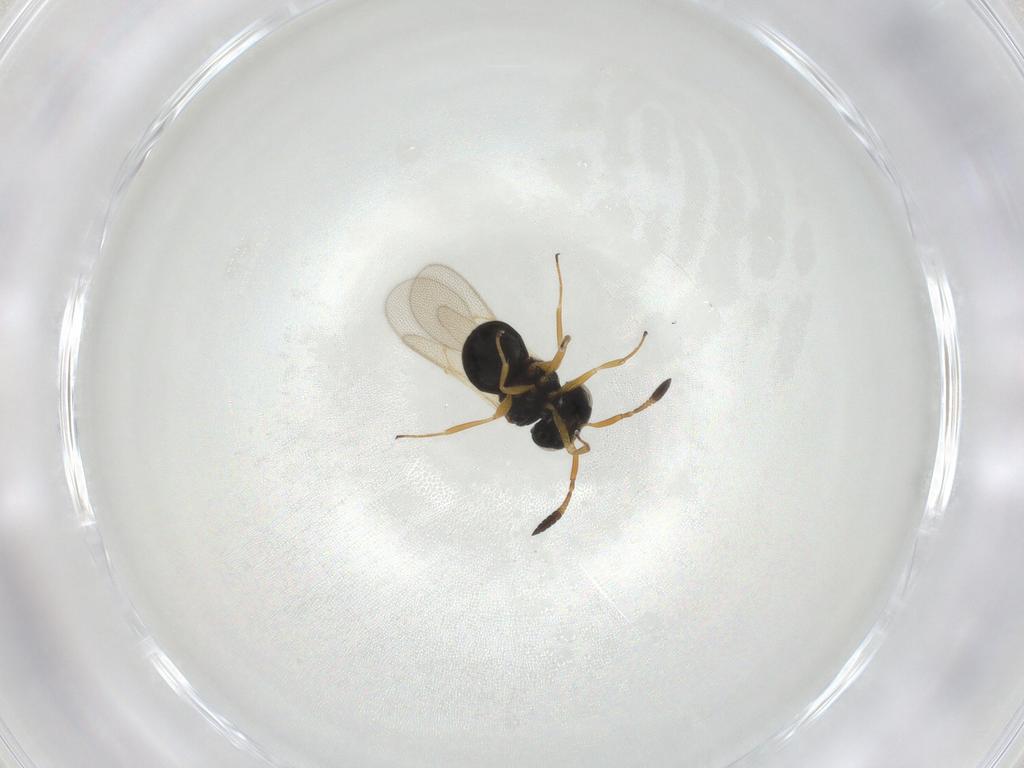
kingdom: Animalia
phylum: Arthropoda
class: Insecta
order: Hymenoptera
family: Scelionidae
